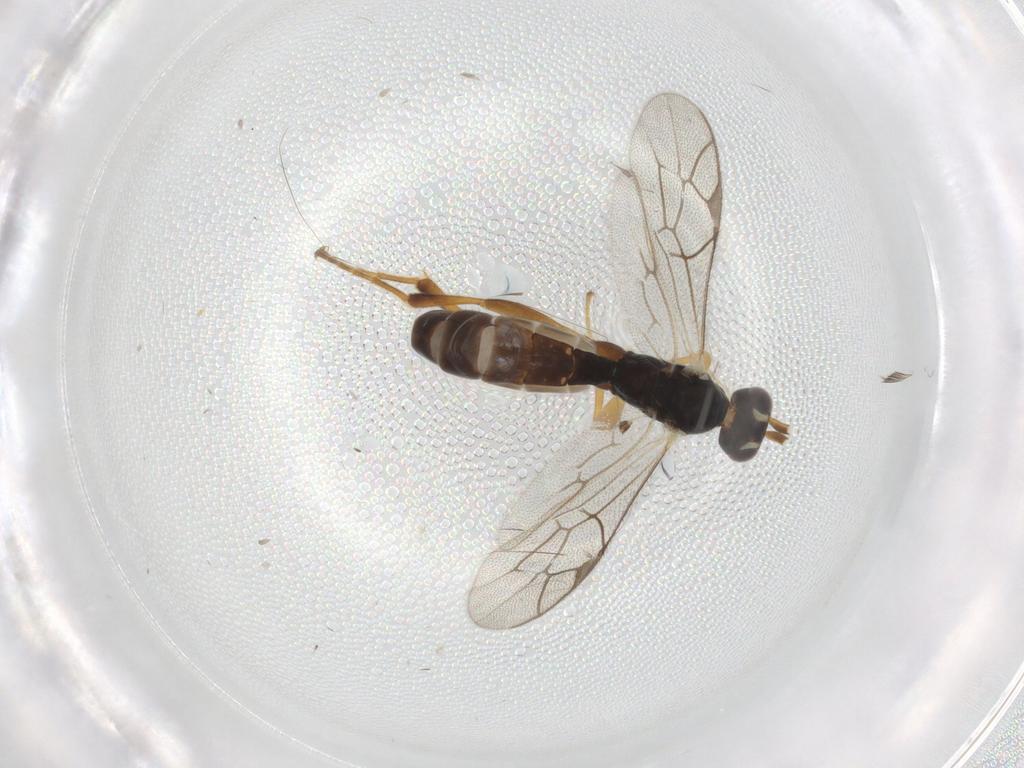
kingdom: Animalia
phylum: Arthropoda
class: Insecta
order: Hymenoptera
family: Ichneumonidae
